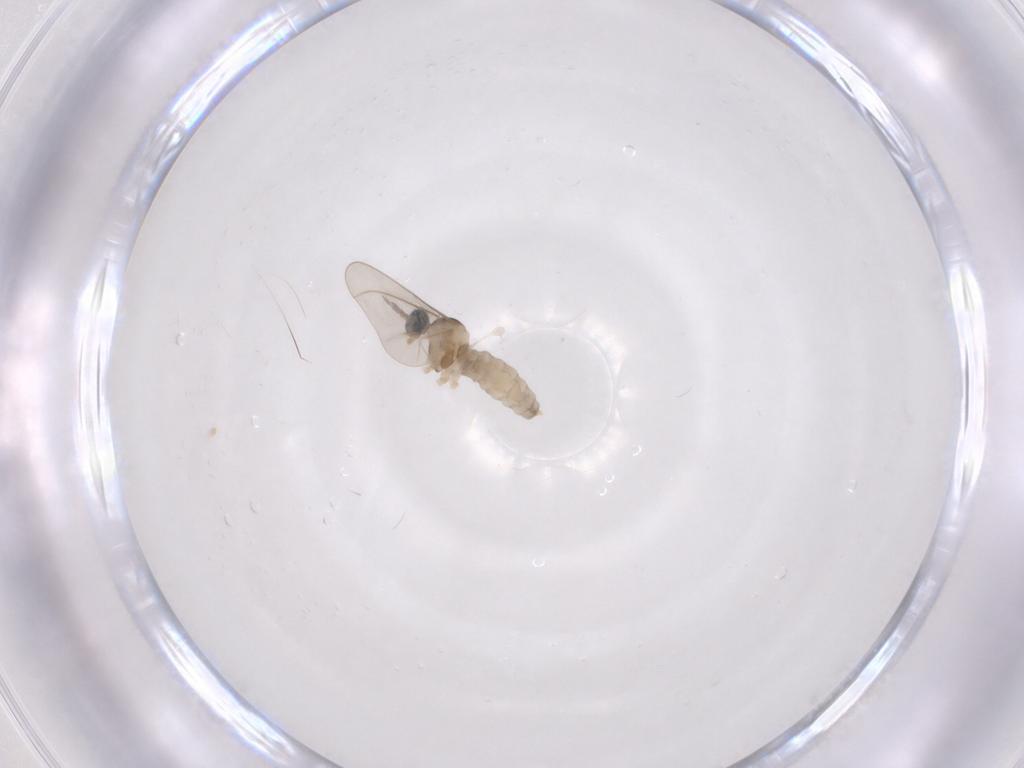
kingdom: Animalia
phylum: Arthropoda
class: Insecta
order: Diptera
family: Cecidomyiidae
